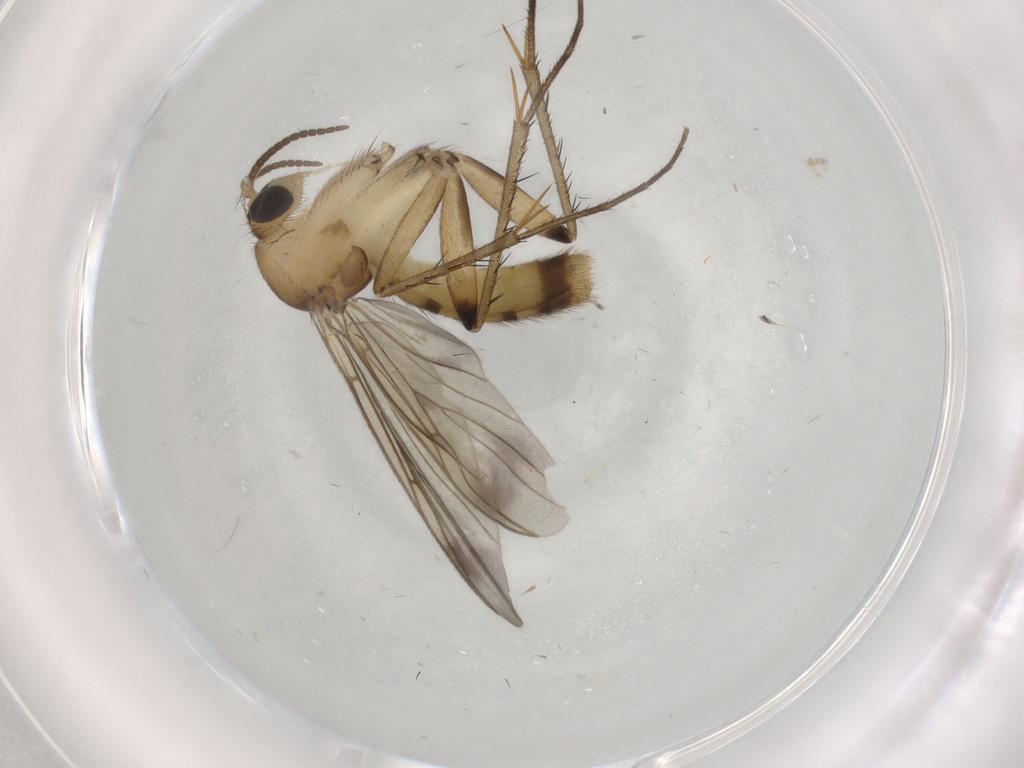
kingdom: Animalia
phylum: Arthropoda
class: Insecta
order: Diptera
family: Mycetophilidae
